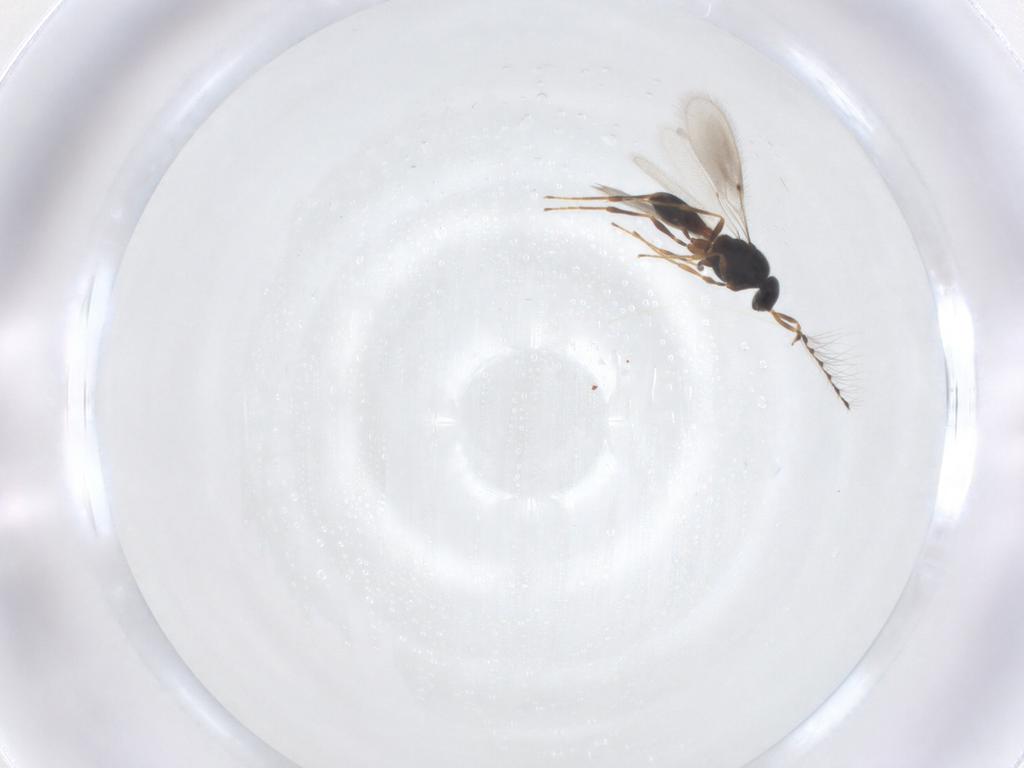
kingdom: Animalia
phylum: Arthropoda
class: Insecta
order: Hymenoptera
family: Platygastridae
